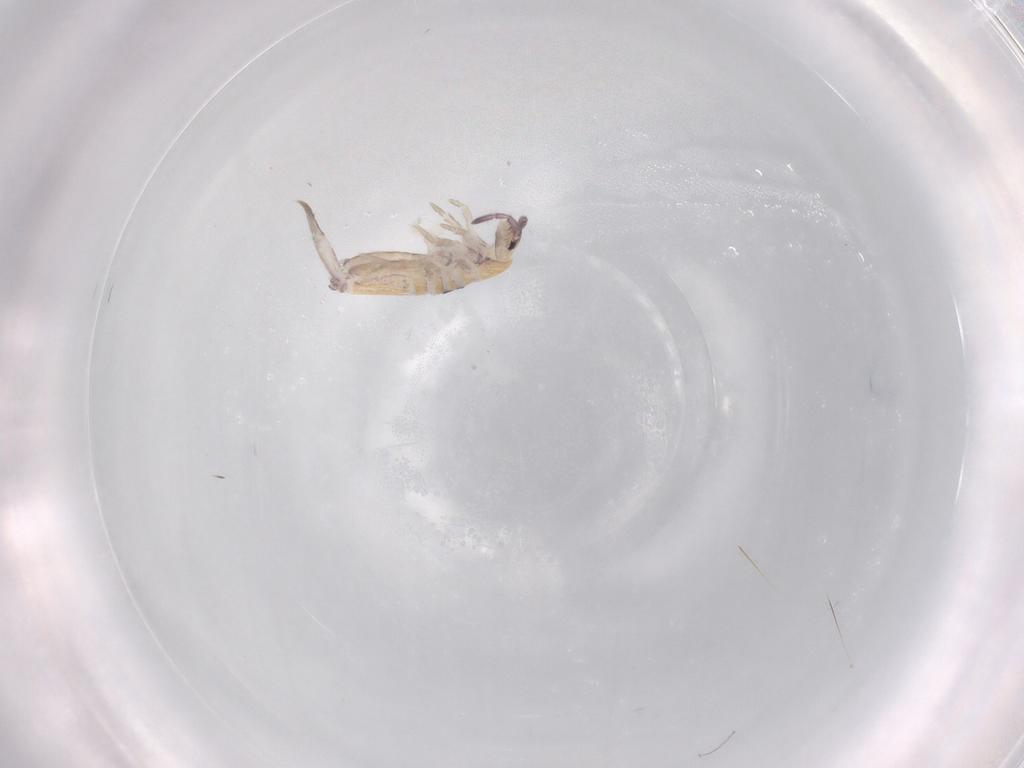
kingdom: Animalia
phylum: Arthropoda
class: Collembola
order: Entomobryomorpha
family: Entomobryidae
